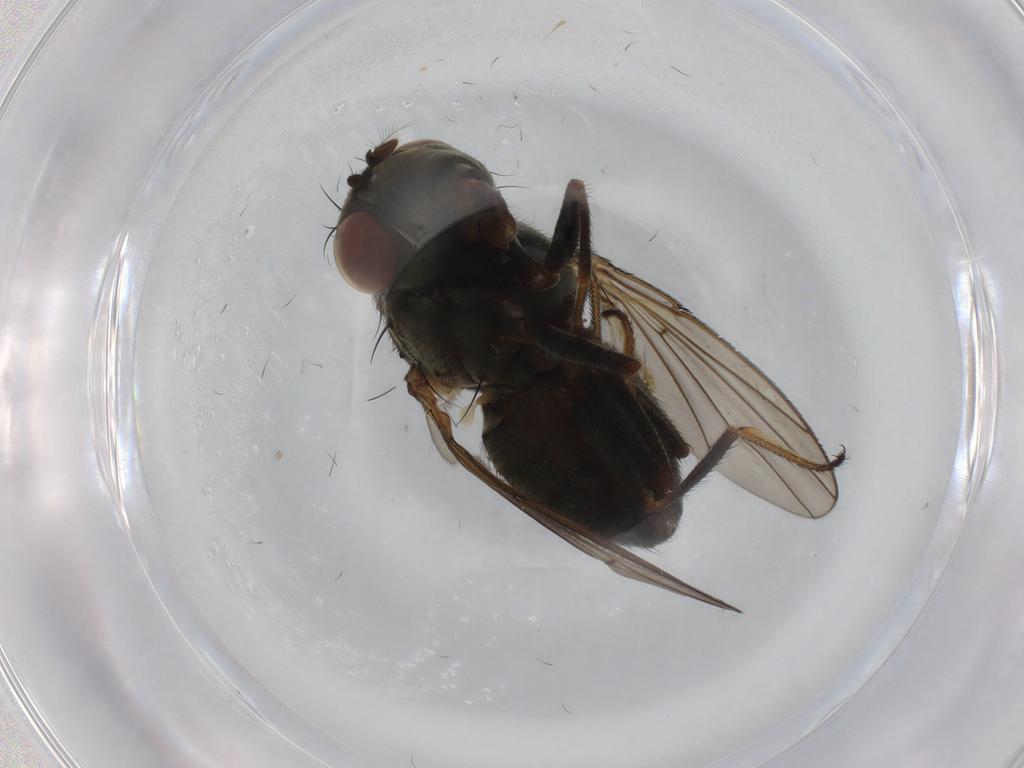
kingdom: Animalia
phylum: Arthropoda
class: Insecta
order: Diptera
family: Ephydridae
